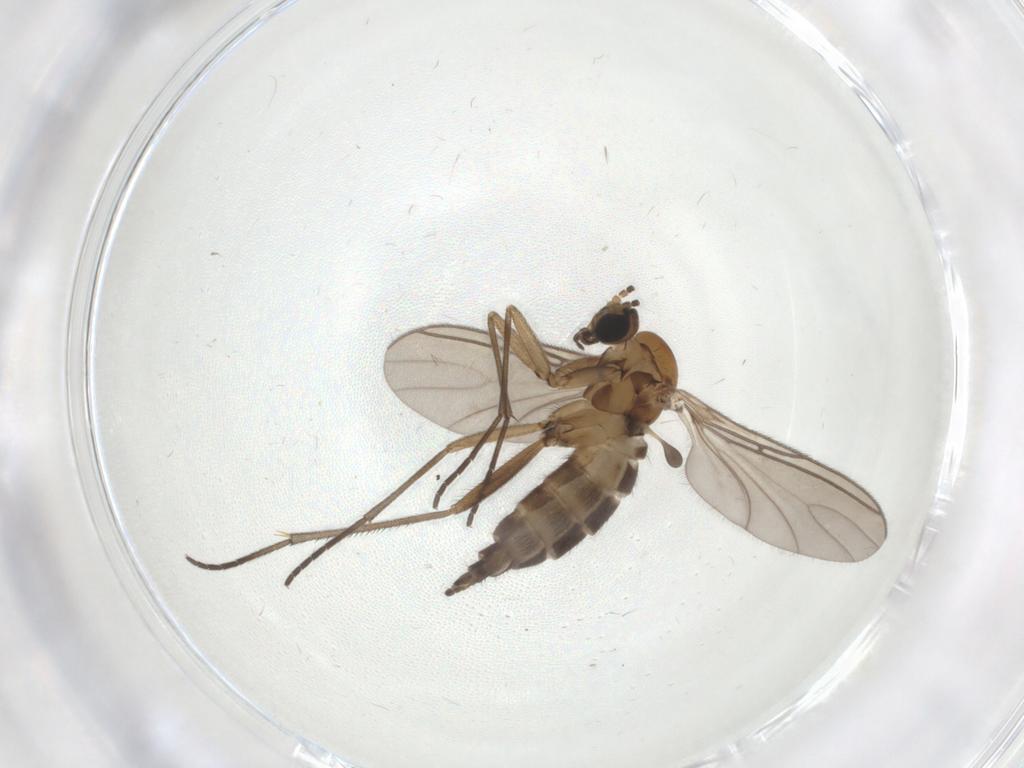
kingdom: Animalia
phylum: Arthropoda
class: Insecta
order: Diptera
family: Sciaridae
